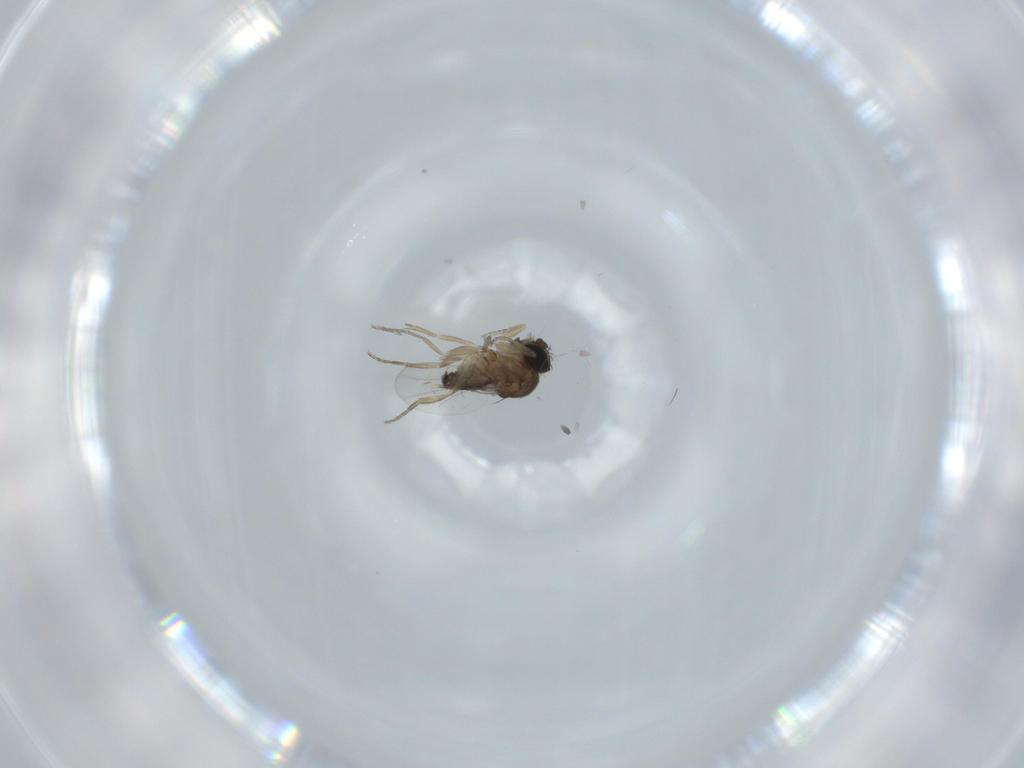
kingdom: Animalia
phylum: Arthropoda
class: Insecta
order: Diptera
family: Cecidomyiidae
